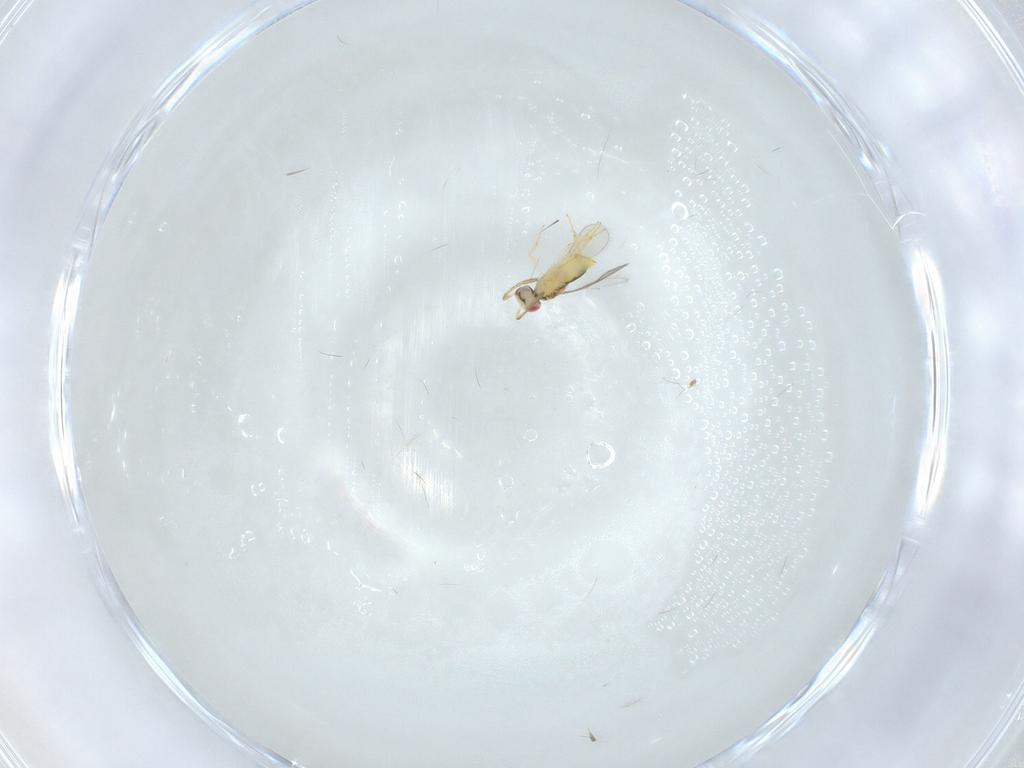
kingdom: Animalia
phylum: Arthropoda
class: Insecta
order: Hymenoptera
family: Aphelinidae
